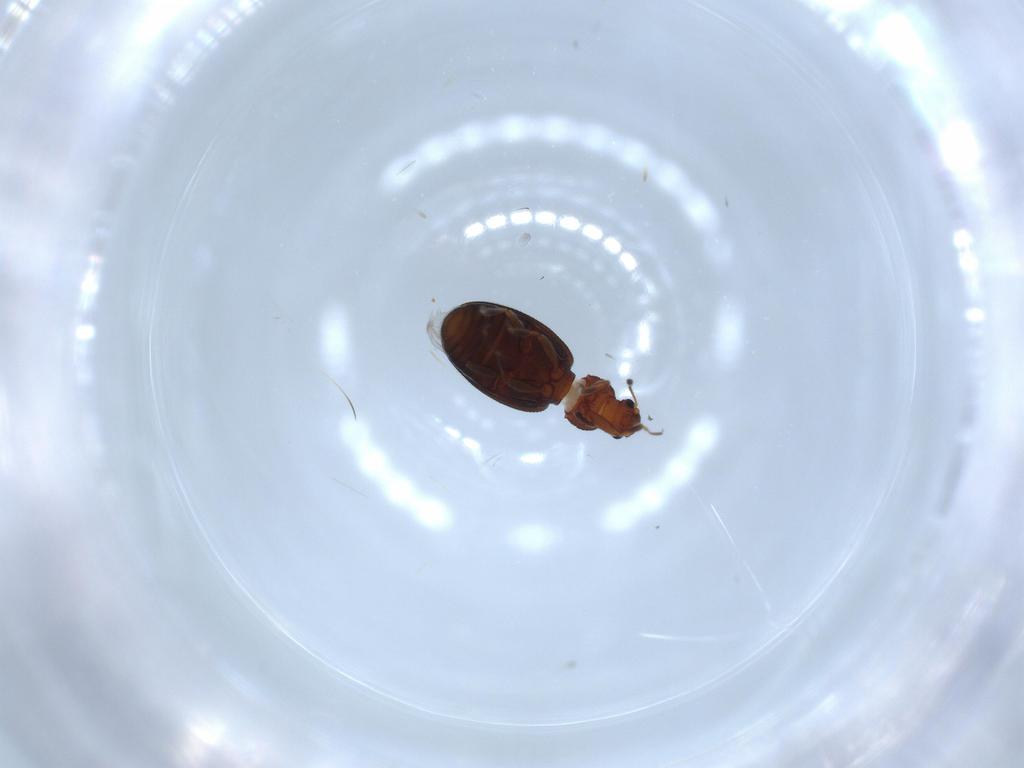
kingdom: Animalia
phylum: Arthropoda
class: Insecta
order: Coleoptera
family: Latridiidae
